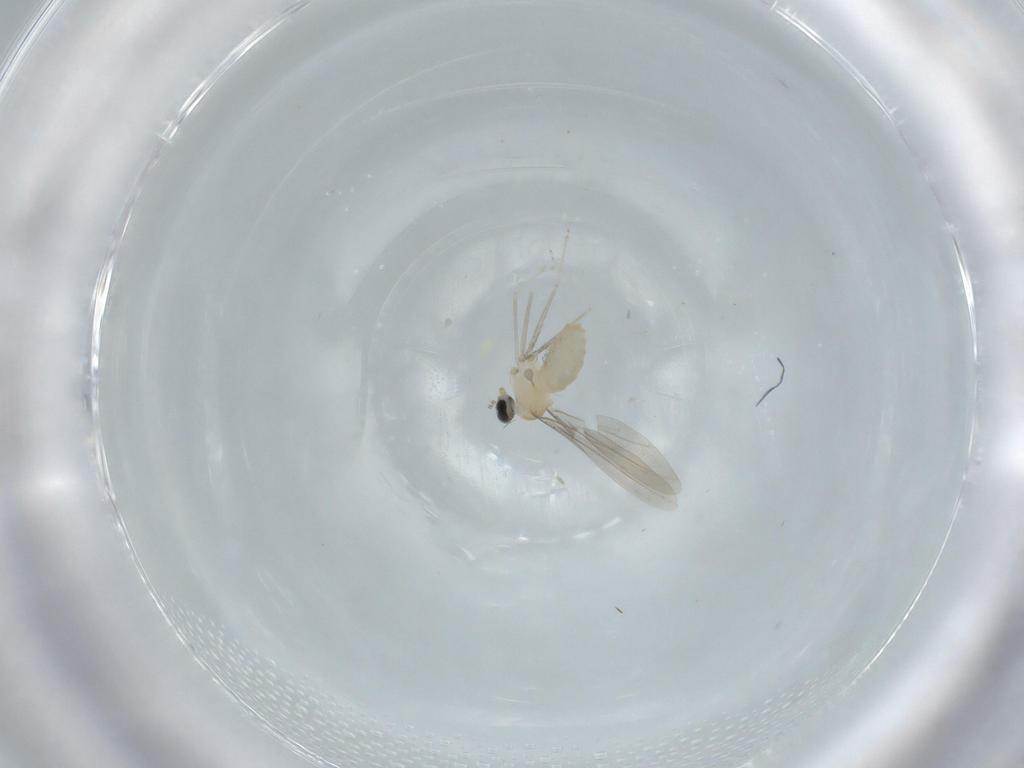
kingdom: Animalia
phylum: Arthropoda
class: Insecta
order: Diptera
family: Cecidomyiidae
